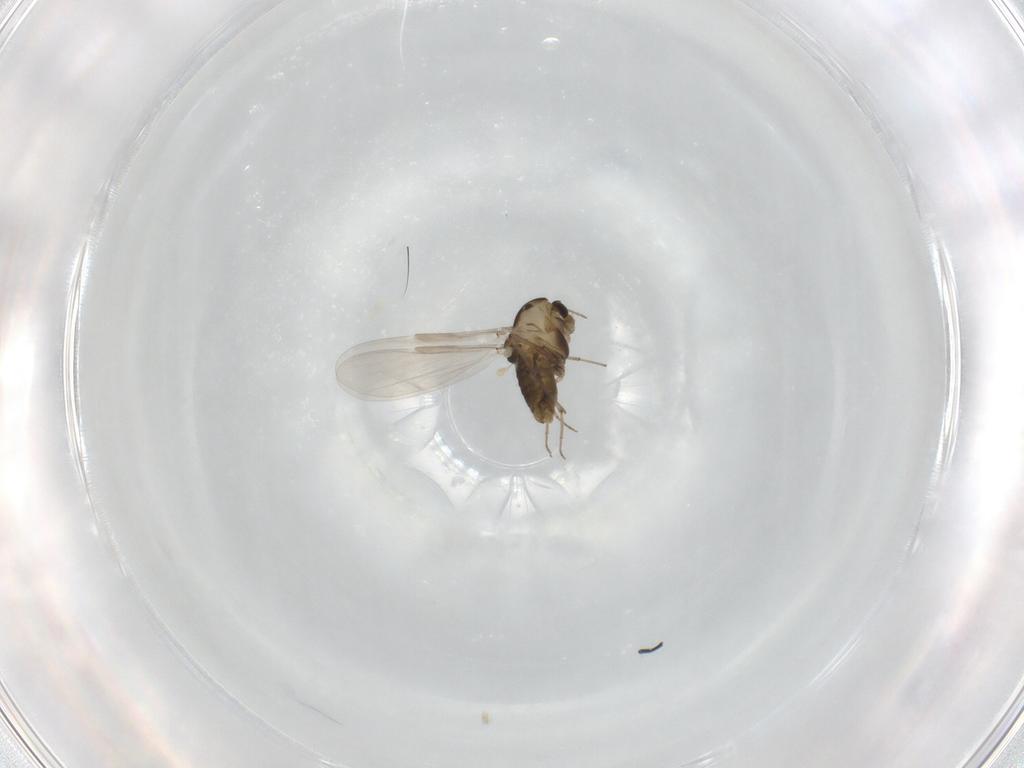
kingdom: Animalia
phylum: Arthropoda
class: Insecta
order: Diptera
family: Chironomidae
